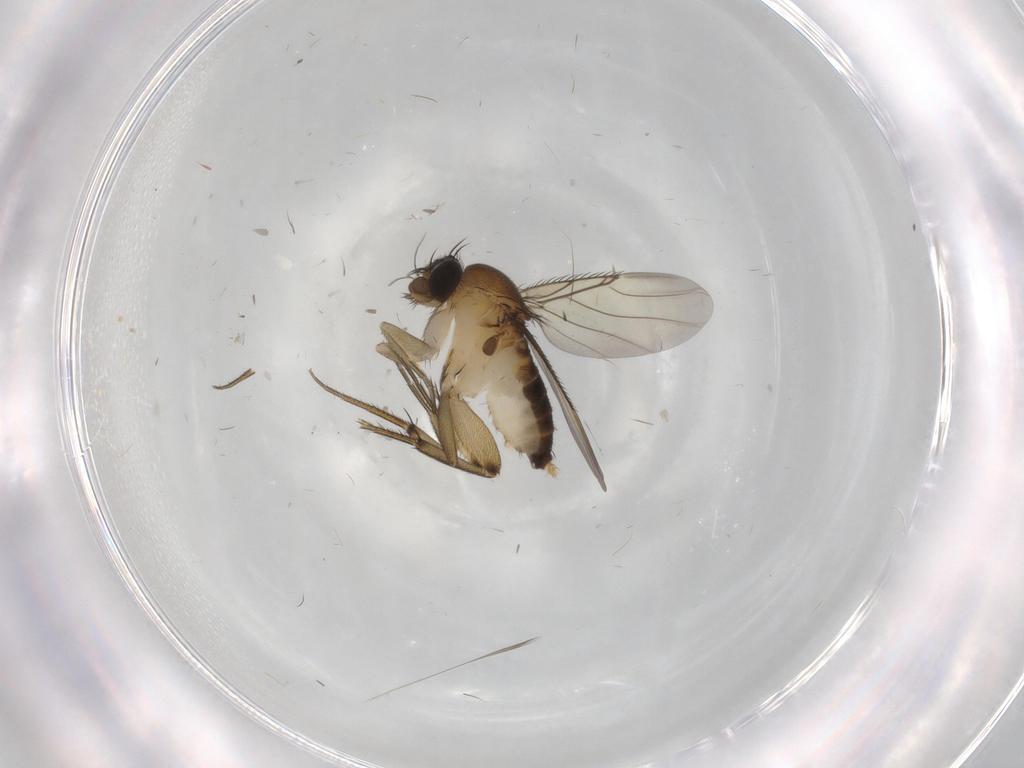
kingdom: Animalia
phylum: Arthropoda
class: Insecta
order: Diptera
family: Phoridae
